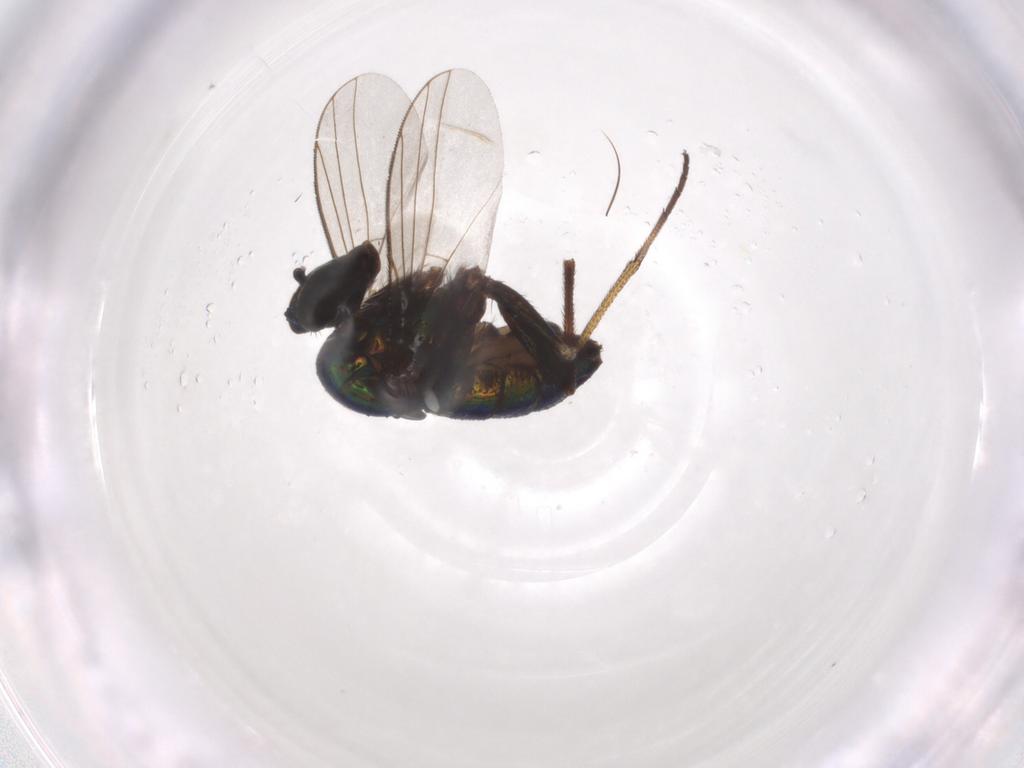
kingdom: Animalia
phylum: Arthropoda
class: Insecta
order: Diptera
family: Dolichopodidae
